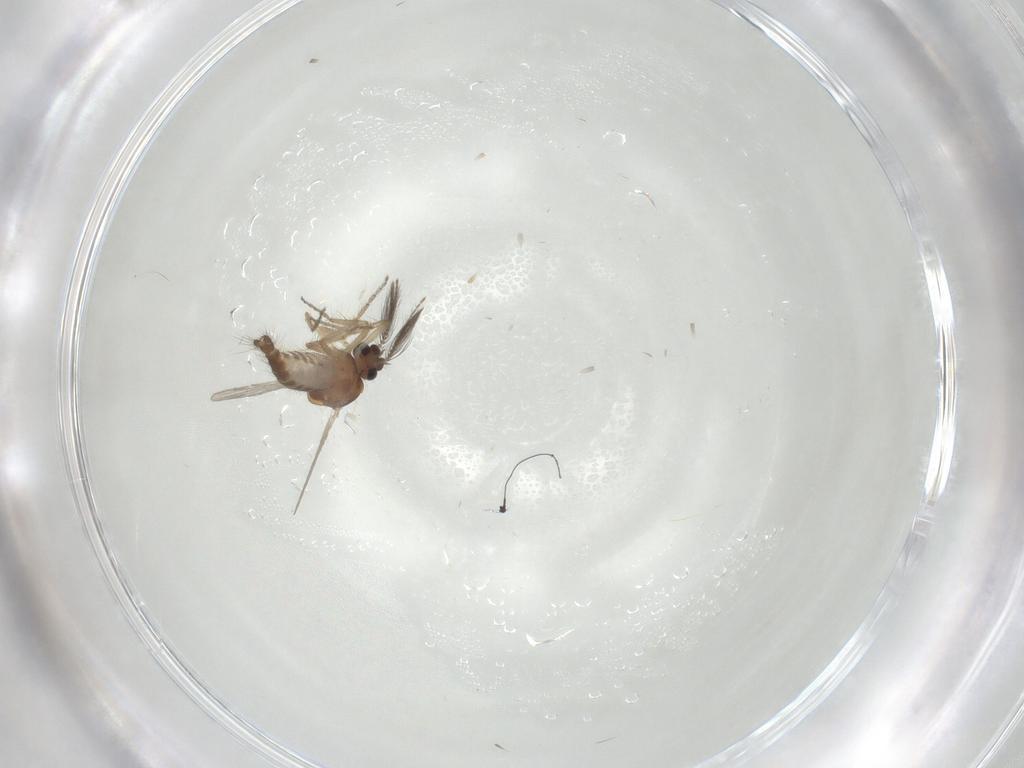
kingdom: Animalia
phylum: Arthropoda
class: Insecta
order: Diptera
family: Ceratopogonidae
